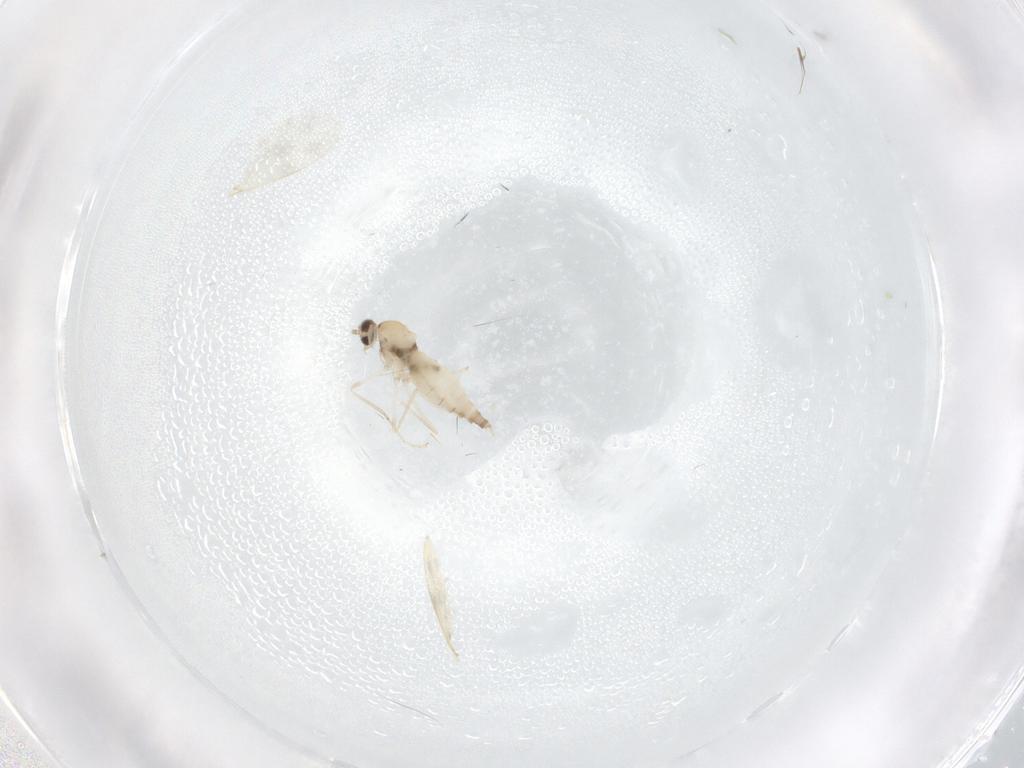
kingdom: Animalia
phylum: Arthropoda
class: Insecta
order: Diptera
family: Cecidomyiidae
